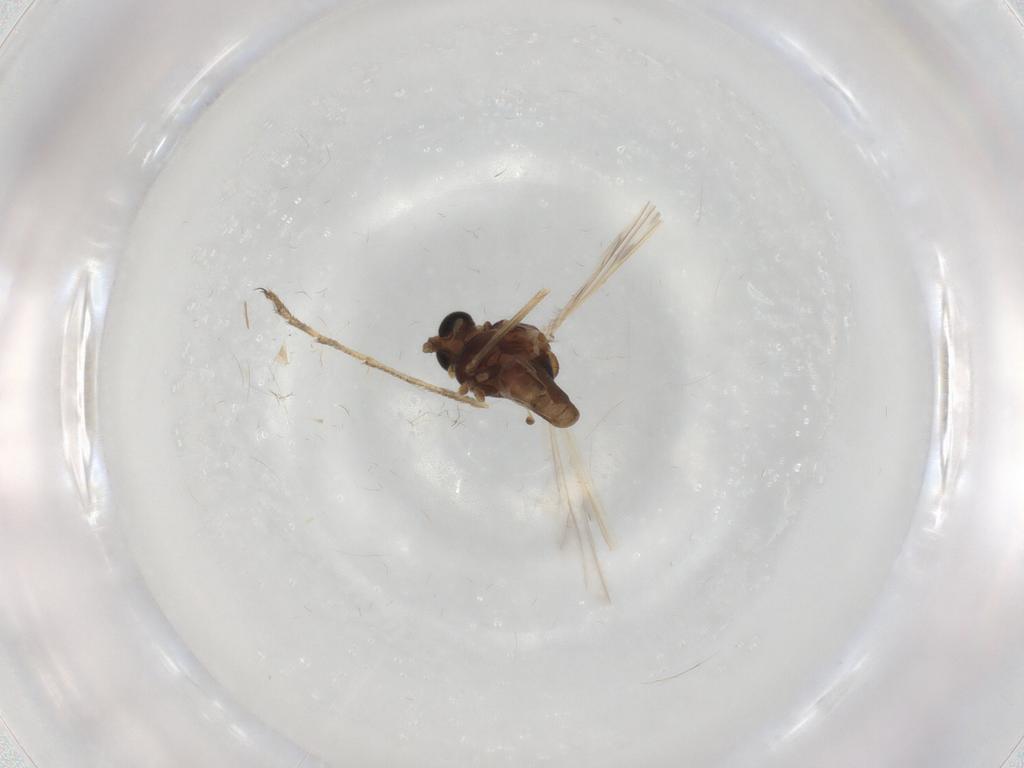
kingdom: Animalia
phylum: Arthropoda
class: Insecta
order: Diptera
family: Chironomidae
